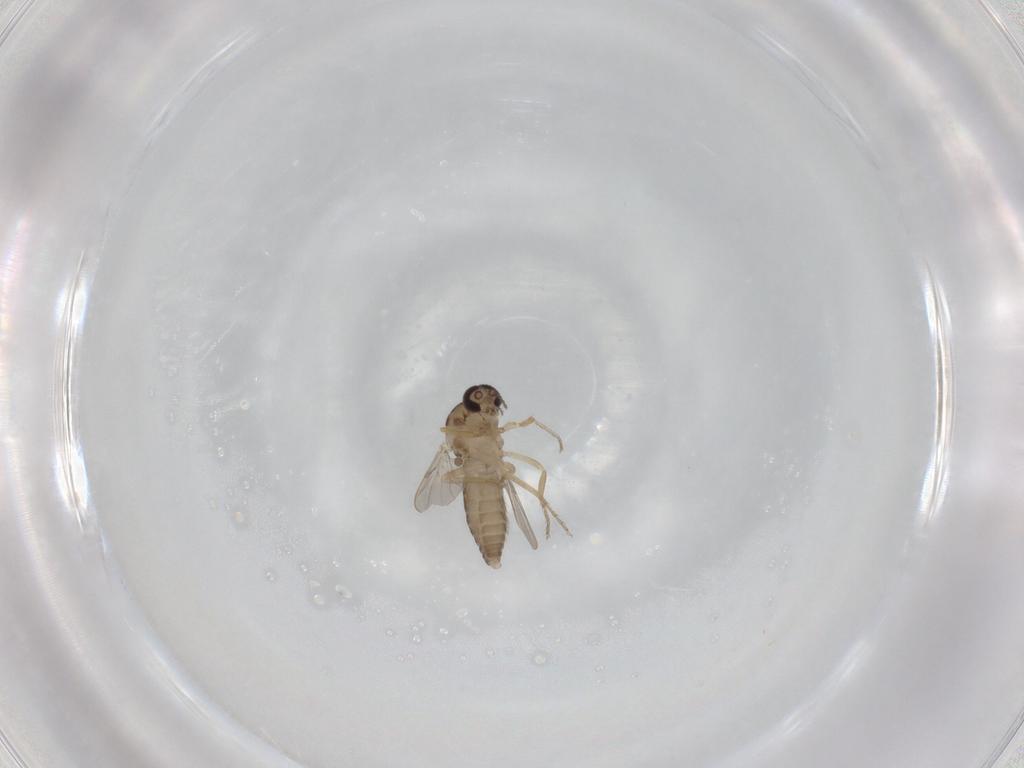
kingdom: Animalia
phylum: Arthropoda
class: Insecta
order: Diptera
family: Ceratopogonidae
